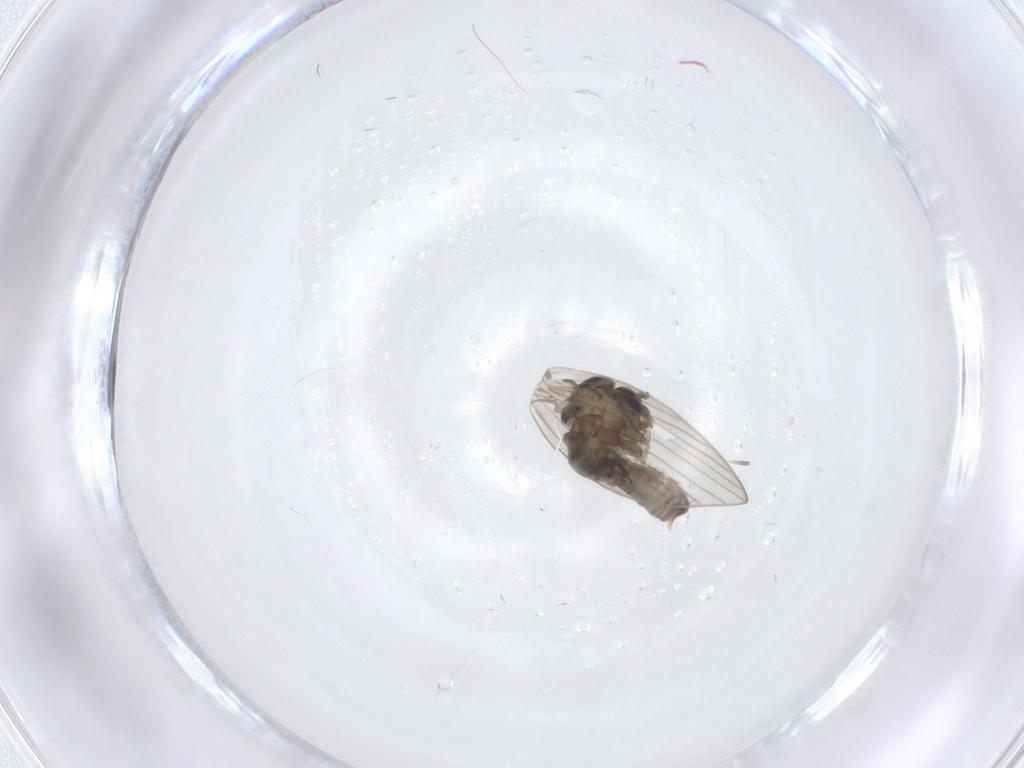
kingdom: Animalia
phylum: Arthropoda
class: Insecta
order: Diptera
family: Psychodidae
